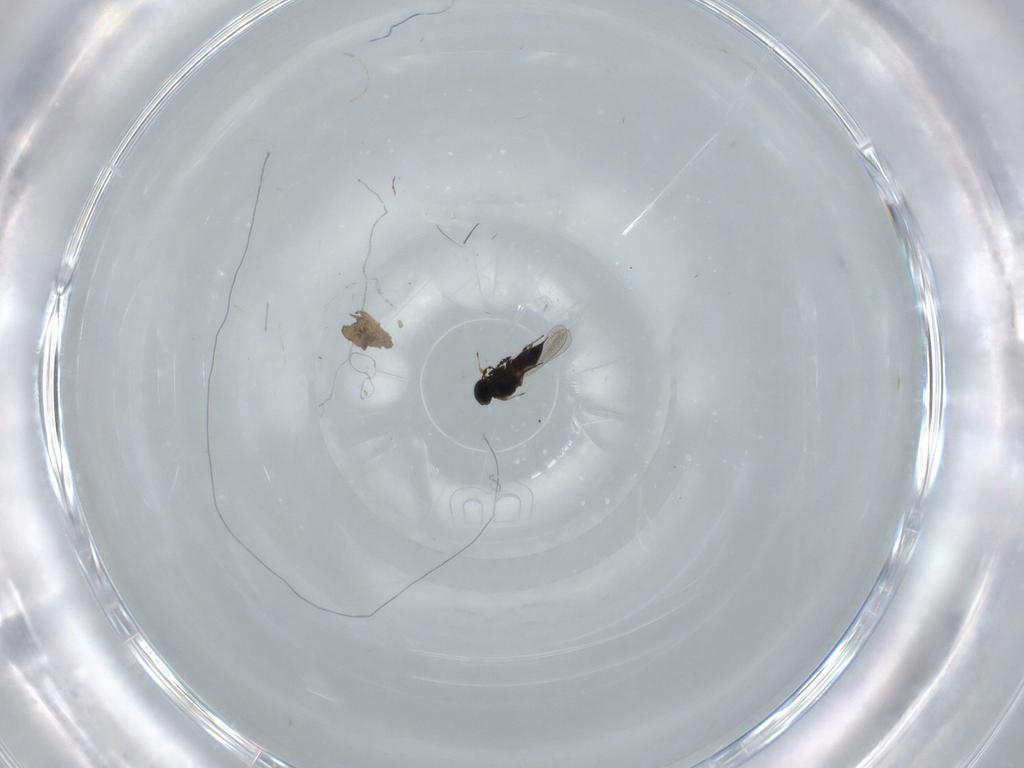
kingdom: Animalia
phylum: Arthropoda
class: Insecta
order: Hymenoptera
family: Platygastridae
